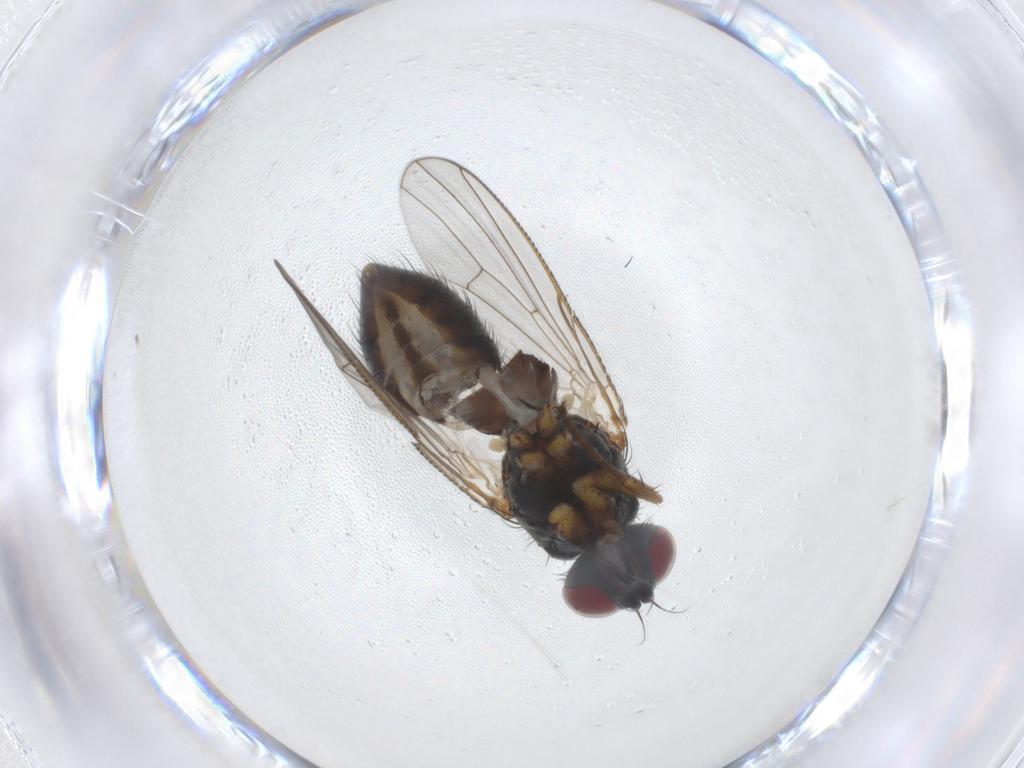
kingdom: Animalia
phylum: Arthropoda
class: Insecta
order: Diptera
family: Muscidae
